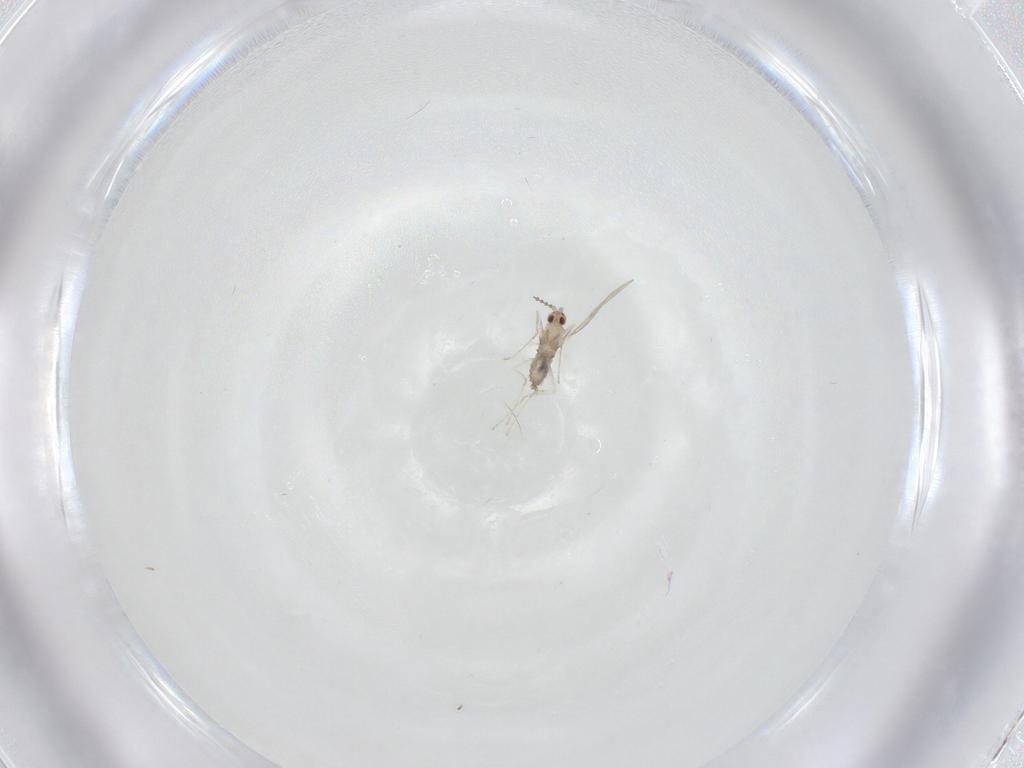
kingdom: Animalia
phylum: Arthropoda
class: Insecta
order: Diptera
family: Cecidomyiidae
